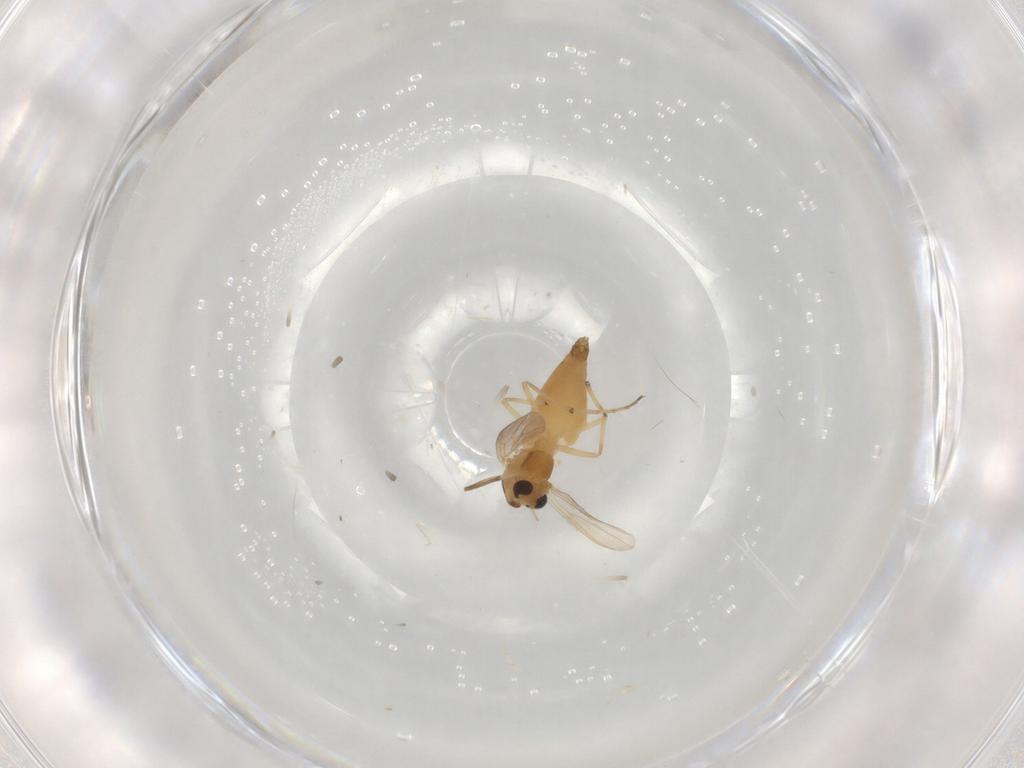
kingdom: Animalia
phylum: Arthropoda
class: Insecta
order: Diptera
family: Chironomidae
